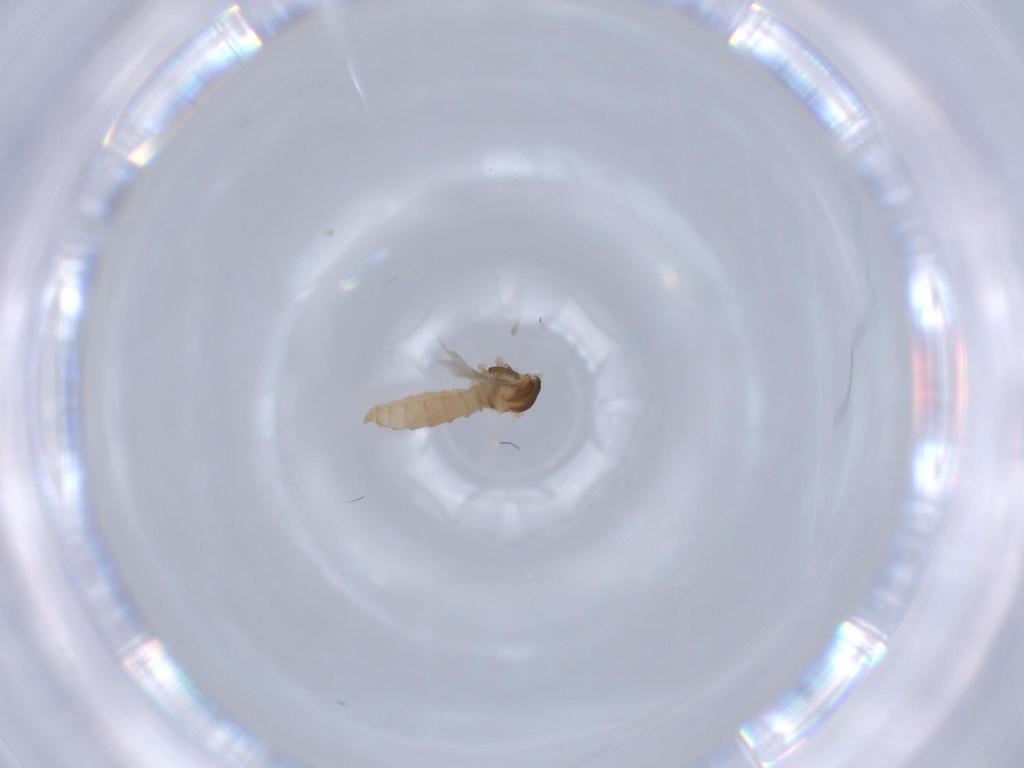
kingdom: Animalia
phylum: Arthropoda
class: Insecta
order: Diptera
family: Cecidomyiidae
